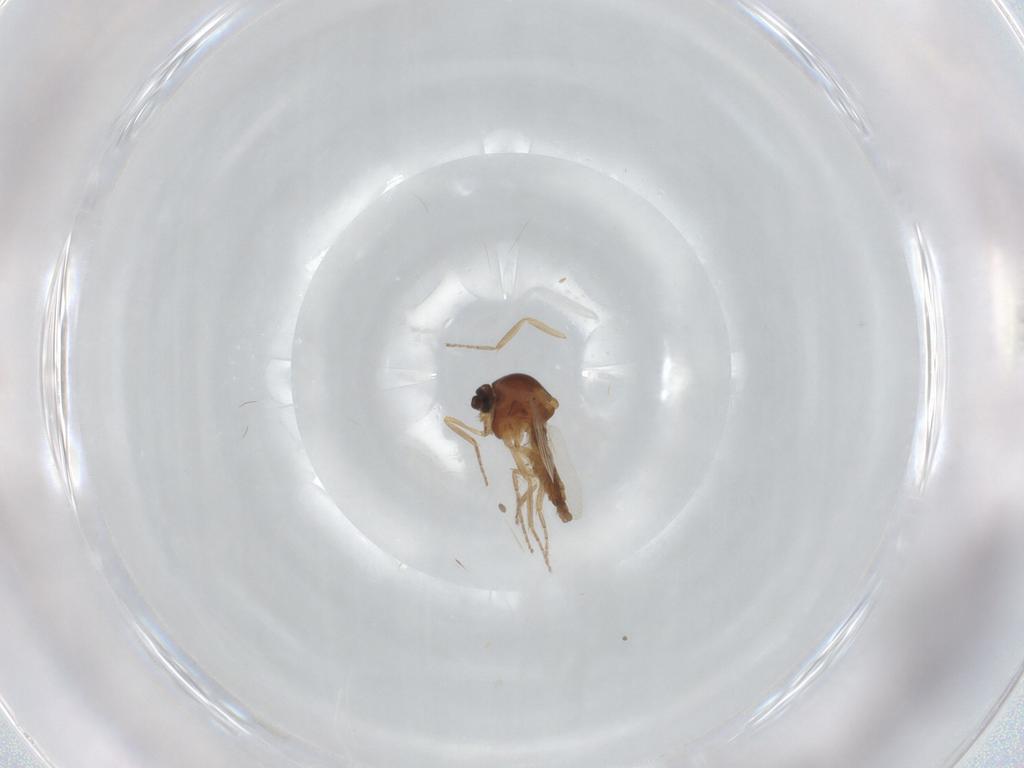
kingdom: Animalia
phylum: Arthropoda
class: Insecta
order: Diptera
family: Ceratopogonidae
